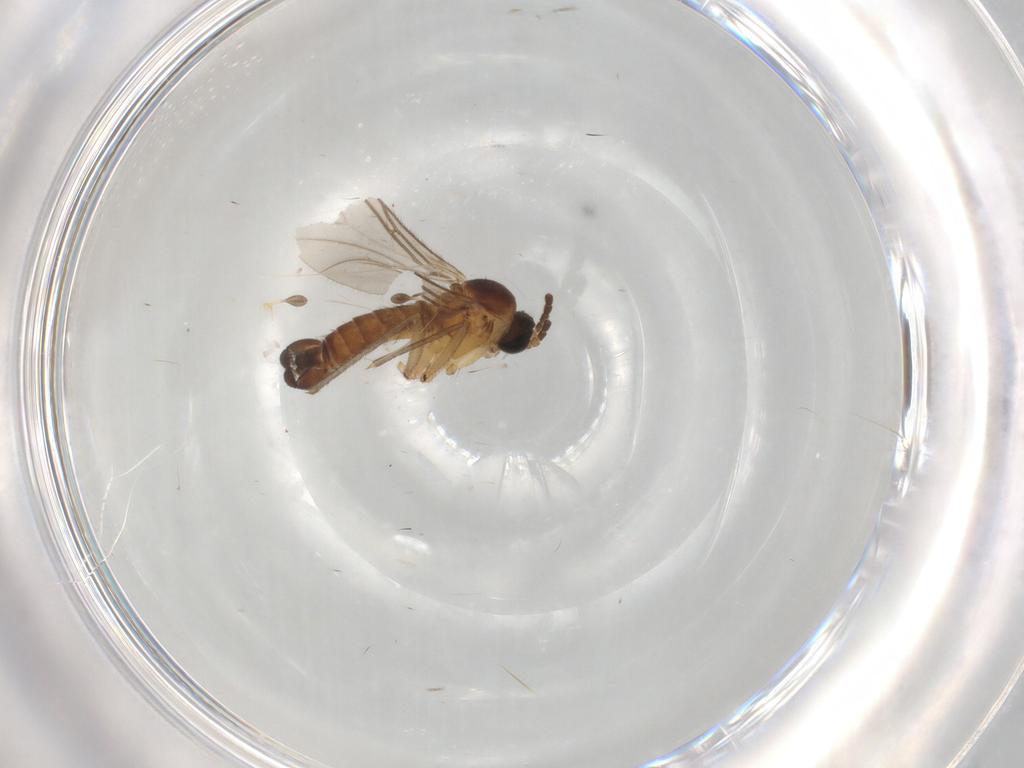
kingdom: Animalia
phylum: Arthropoda
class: Insecta
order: Diptera
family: Sciaridae
